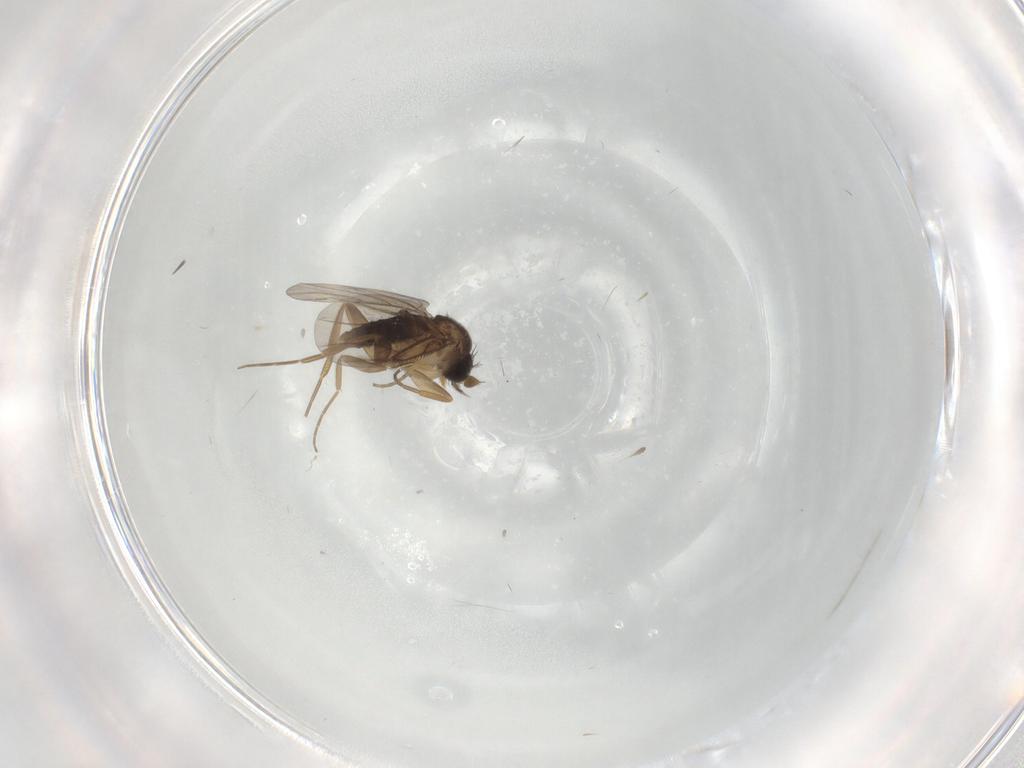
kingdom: Animalia
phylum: Arthropoda
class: Insecta
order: Diptera
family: Phoridae
